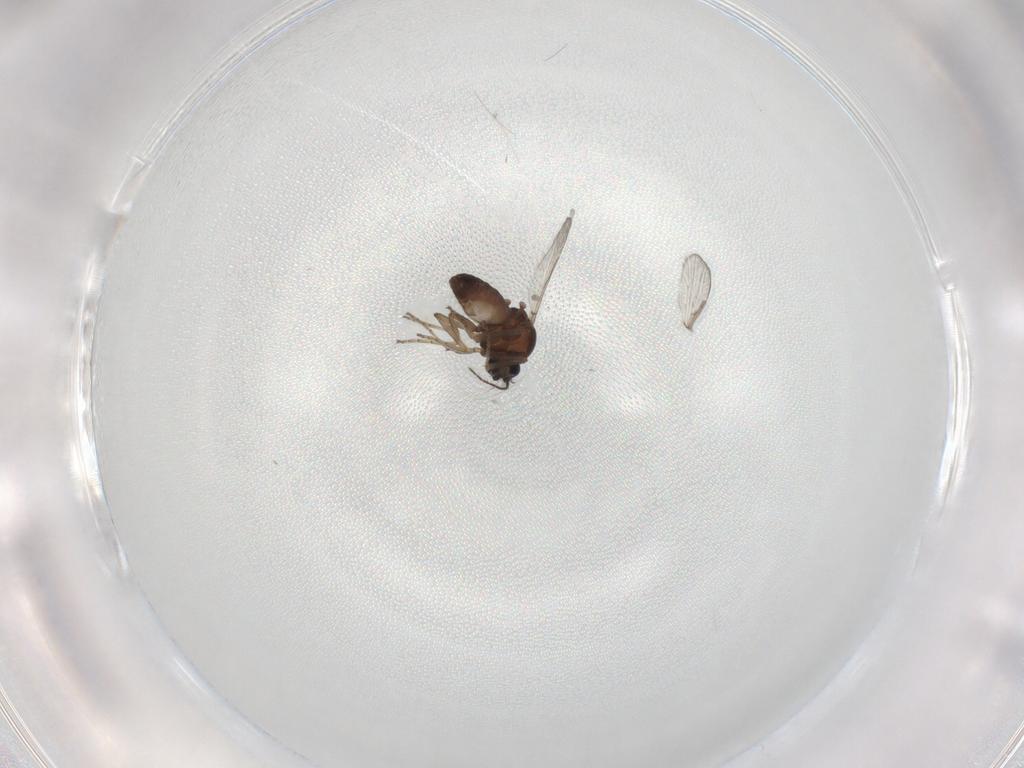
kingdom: Animalia
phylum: Arthropoda
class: Insecta
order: Diptera
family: Ceratopogonidae
